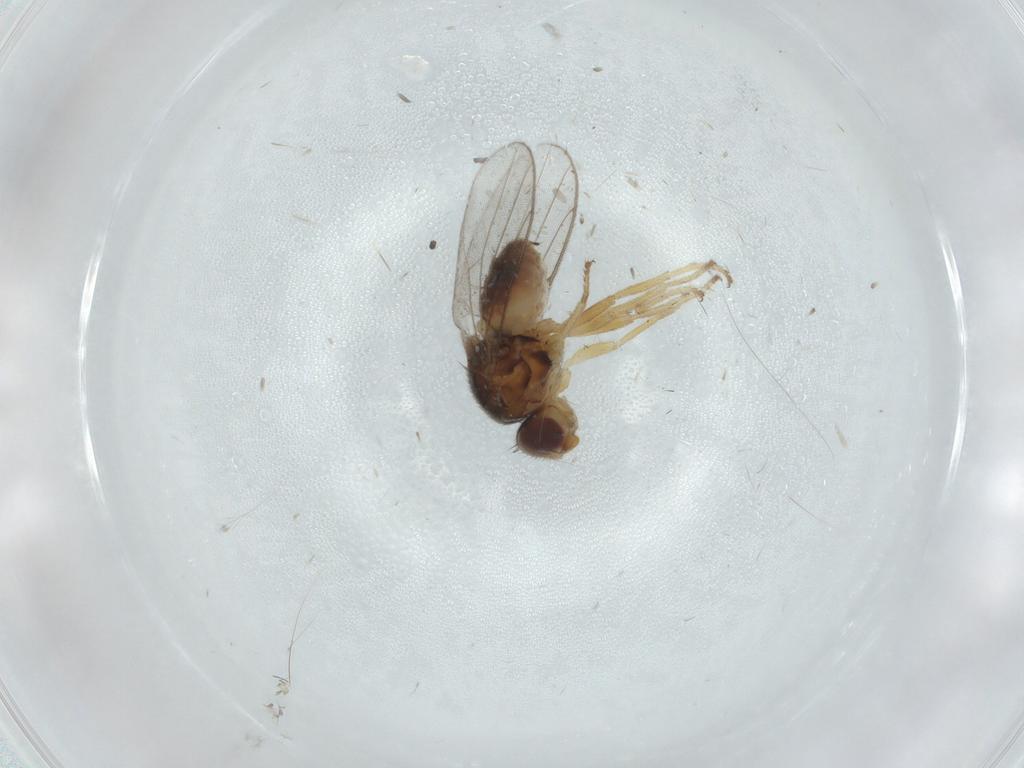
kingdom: Animalia
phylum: Arthropoda
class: Insecta
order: Diptera
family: Chloropidae
